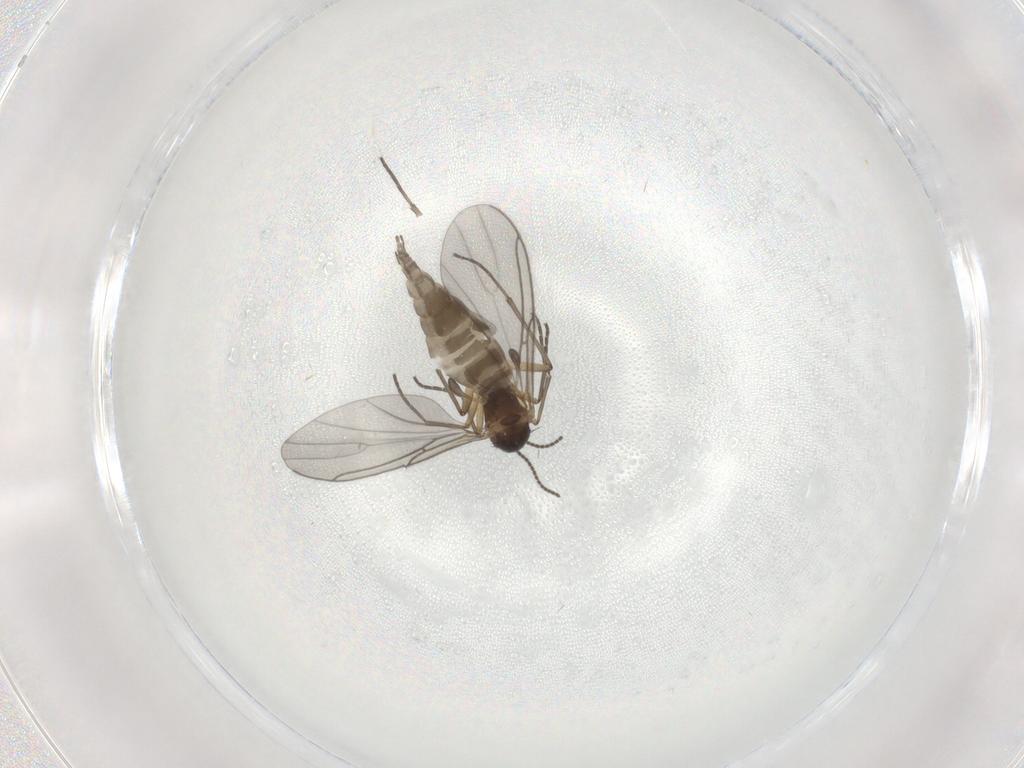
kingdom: Animalia
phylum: Arthropoda
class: Insecta
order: Diptera
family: Sciaridae
